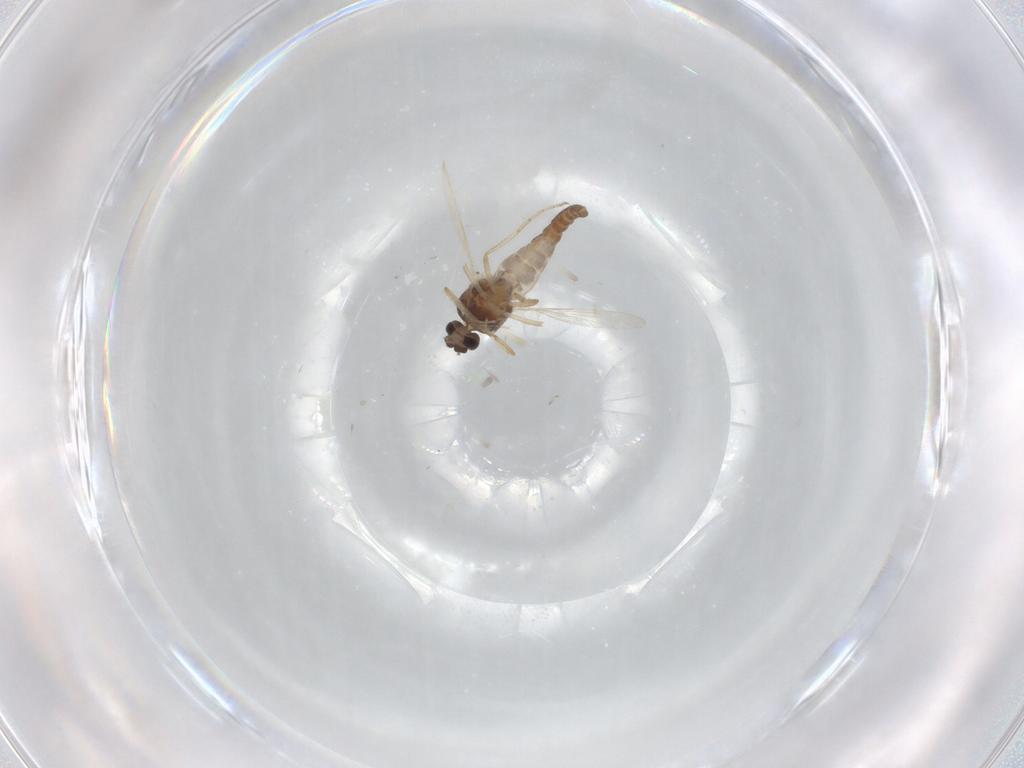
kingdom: Animalia
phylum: Arthropoda
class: Insecta
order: Diptera
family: Ceratopogonidae
